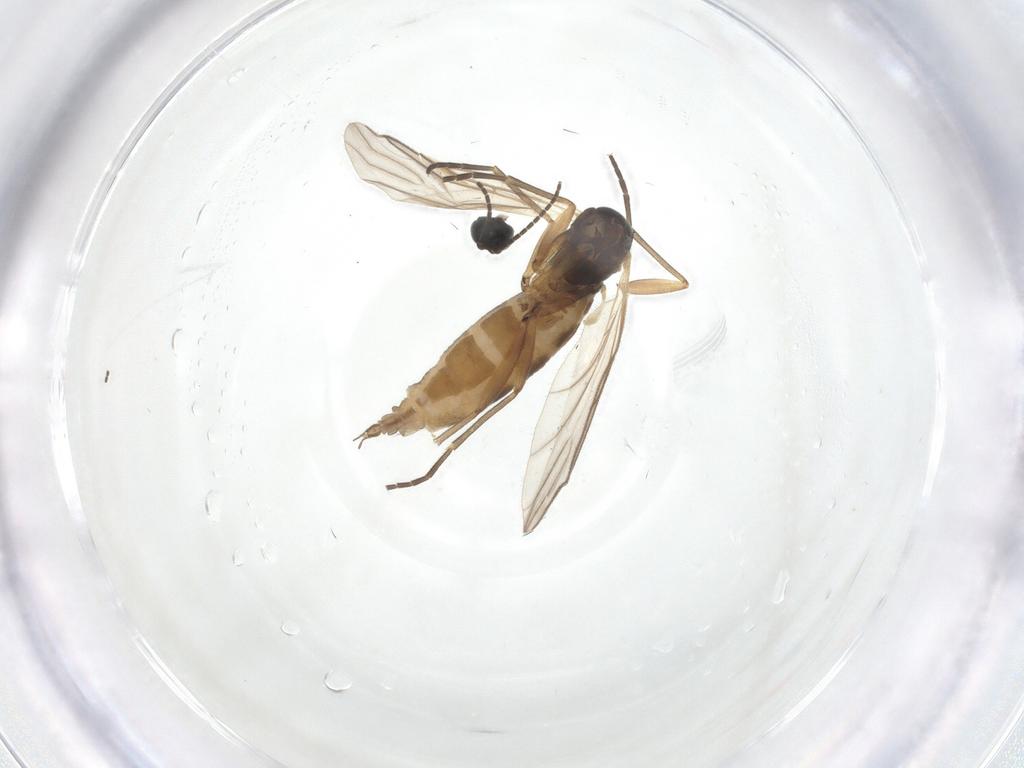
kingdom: Animalia
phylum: Arthropoda
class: Insecta
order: Diptera
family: Sciaridae
